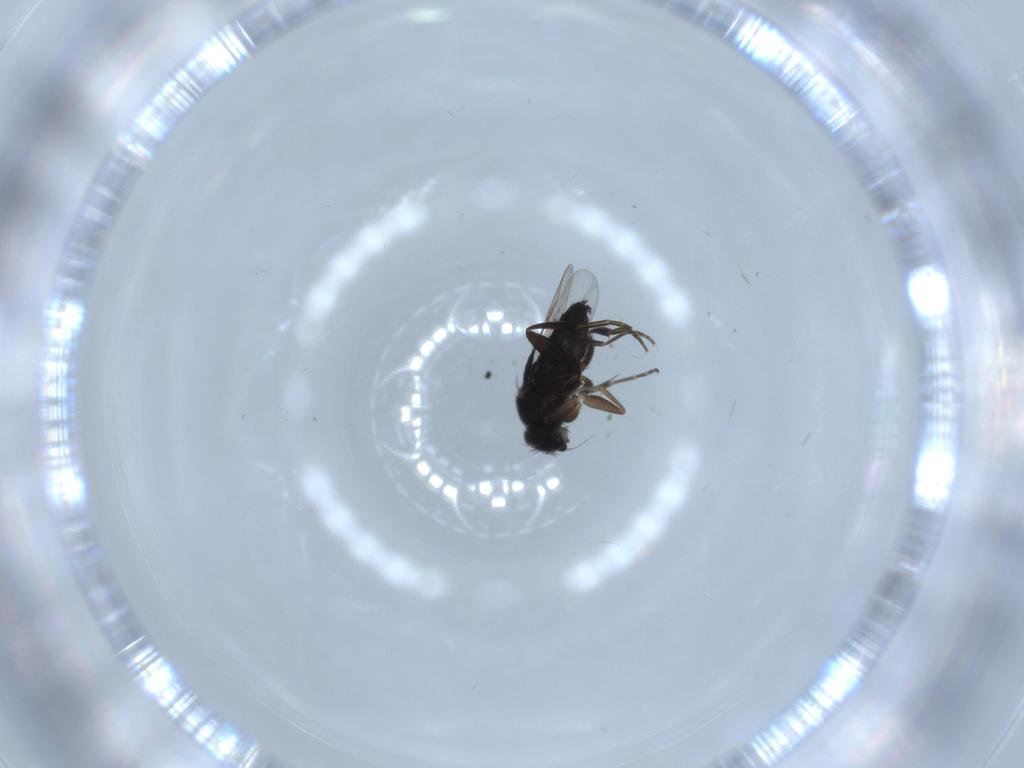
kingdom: Animalia
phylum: Arthropoda
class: Insecta
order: Diptera
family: Phoridae
